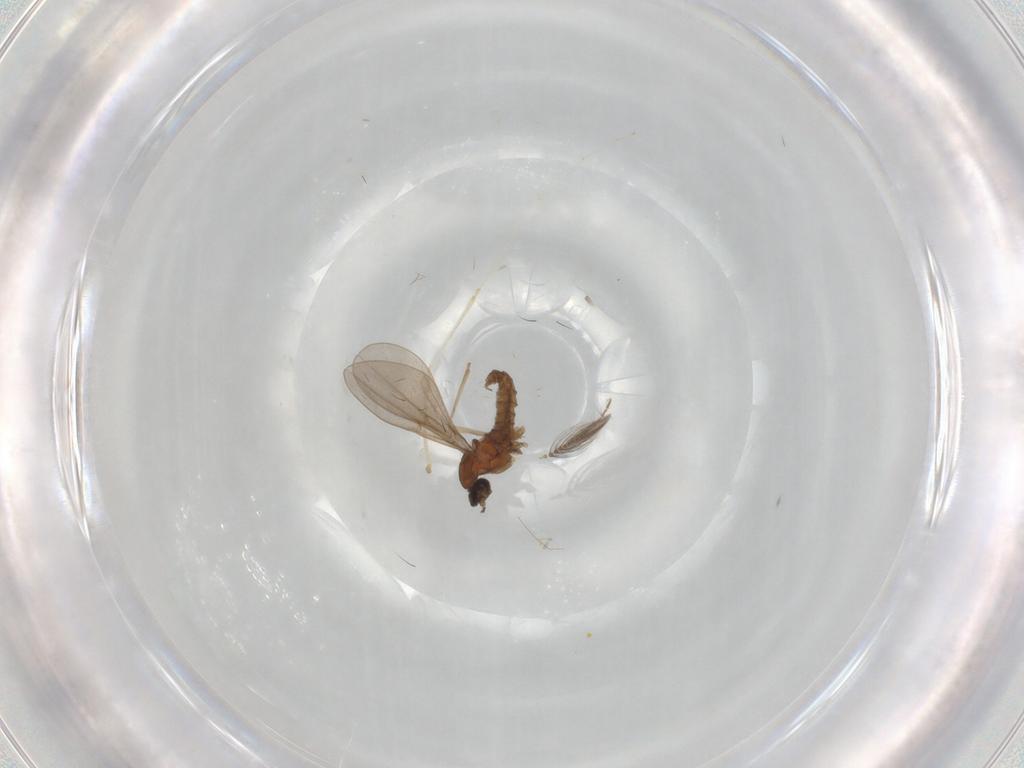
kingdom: Animalia
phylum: Arthropoda
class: Insecta
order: Diptera
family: Cecidomyiidae
